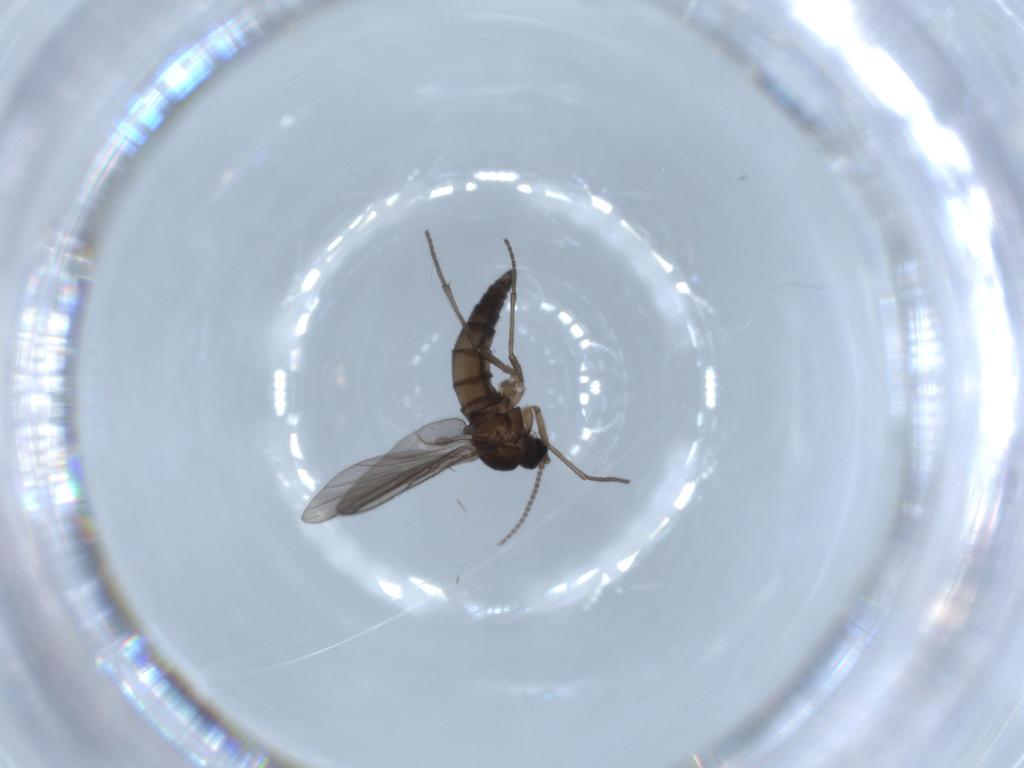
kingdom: Animalia
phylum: Arthropoda
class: Insecta
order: Diptera
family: Sciaridae
